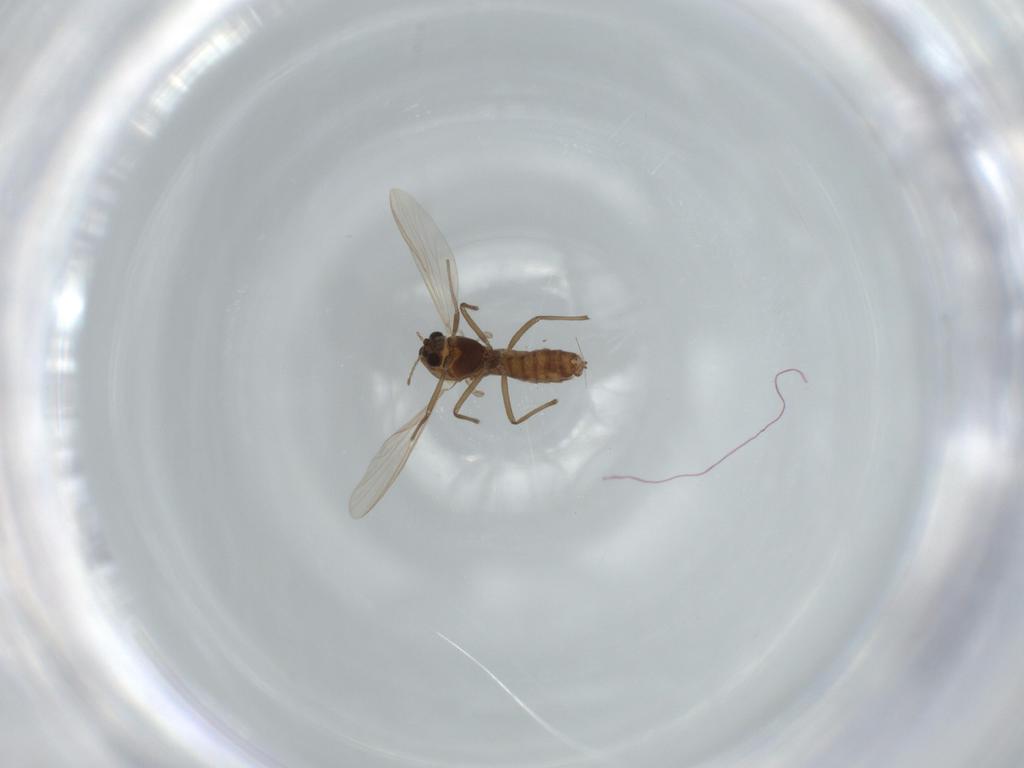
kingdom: Animalia
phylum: Arthropoda
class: Insecta
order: Diptera
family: Chironomidae
